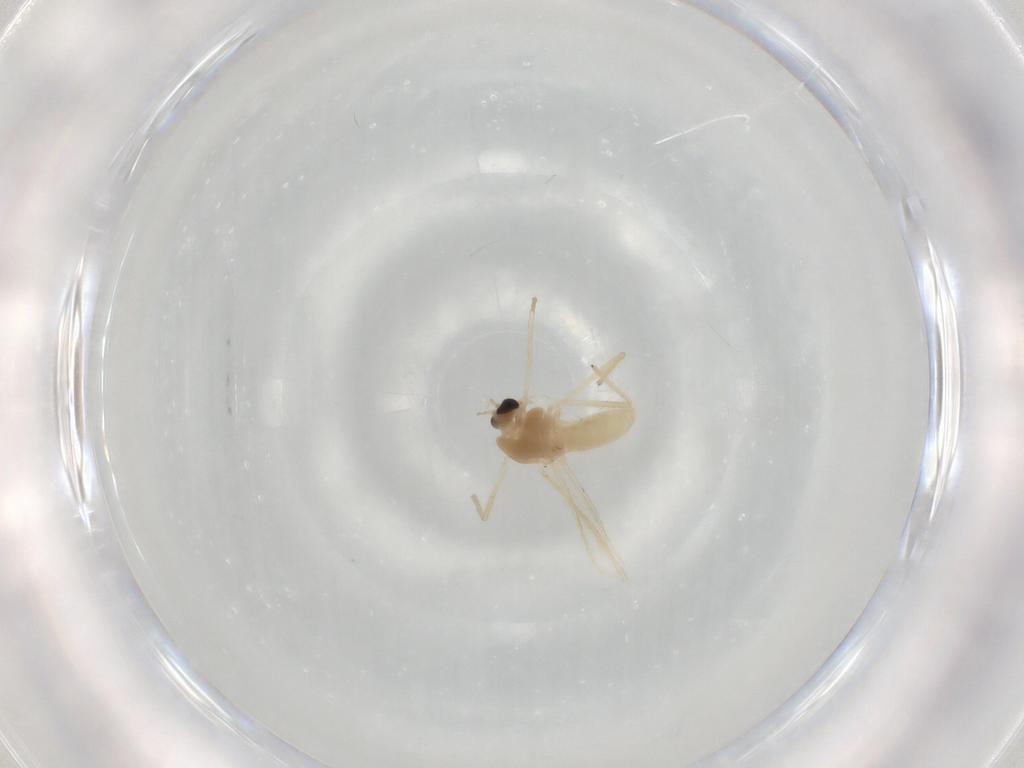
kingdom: Animalia
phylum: Arthropoda
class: Insecta
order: Diptera
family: Chironomidae
